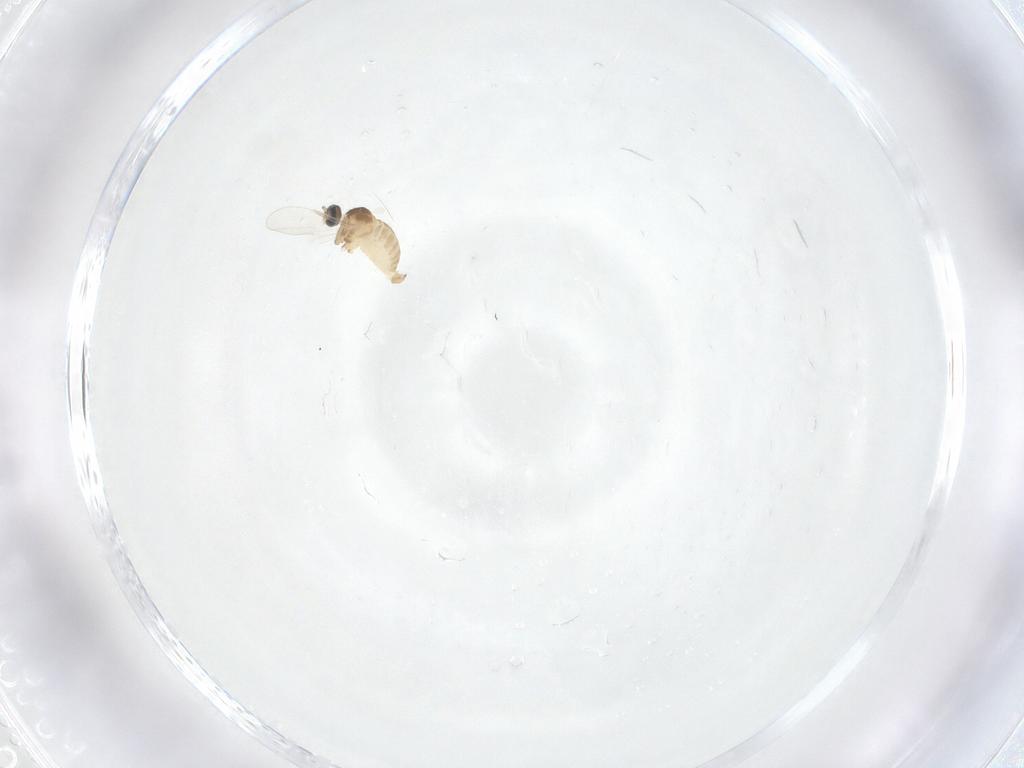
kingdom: Animalia
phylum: Arthropoda
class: Insecta
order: Diptera
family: Cecidomyiidae
